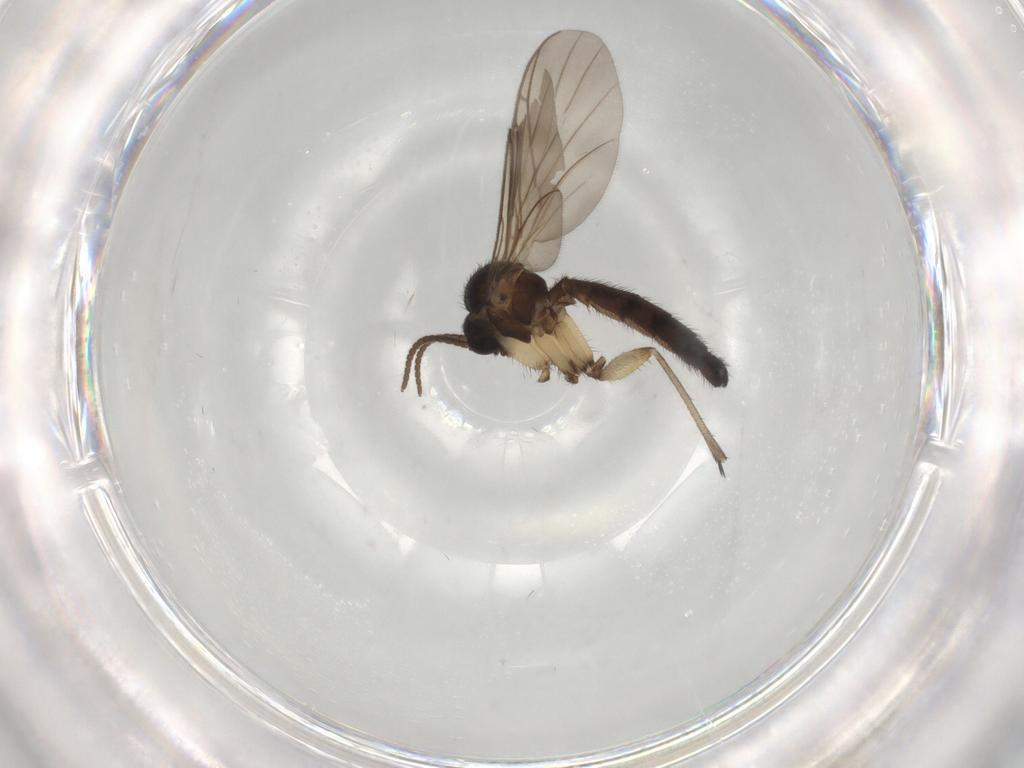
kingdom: Animalia
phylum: Arthropoda
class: Insecta
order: Diptera
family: Keroplatidae
